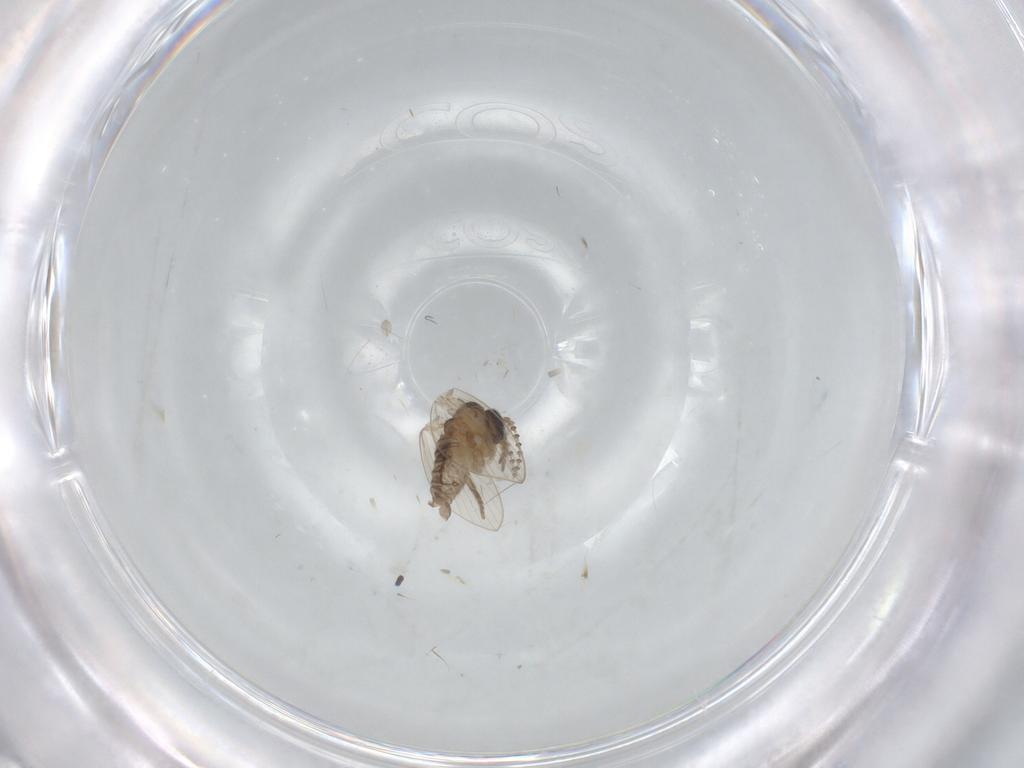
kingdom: Animalia
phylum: Arthropoda
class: Insecta
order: Diptera
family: Psychodidae
